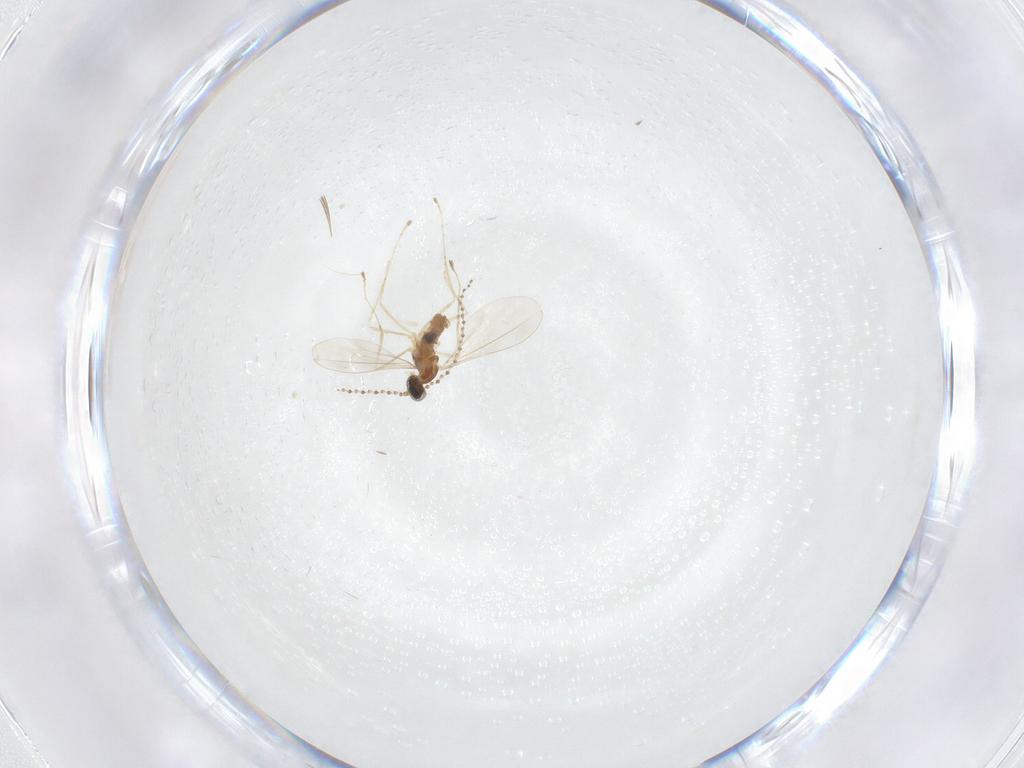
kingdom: Animalia
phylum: Arthropoda
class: Insecta
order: Diptera
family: Cecidomyiidae
